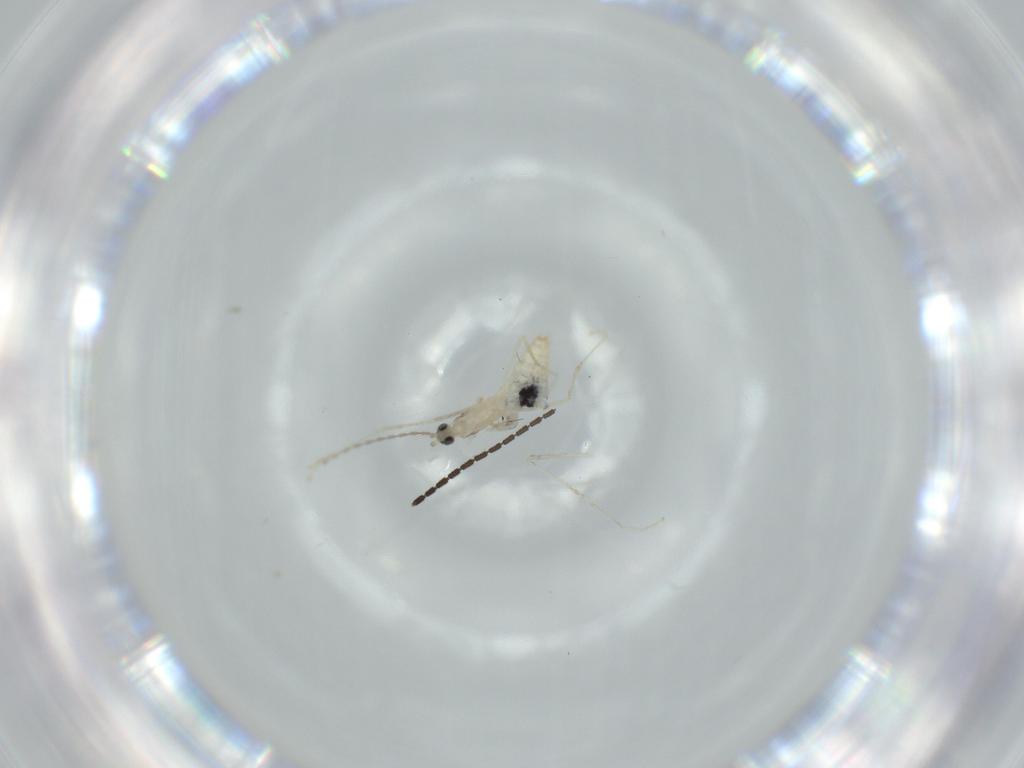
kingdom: Animalia
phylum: Arthropoda
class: Insecta
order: Diptera
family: Cecidomyiidae
